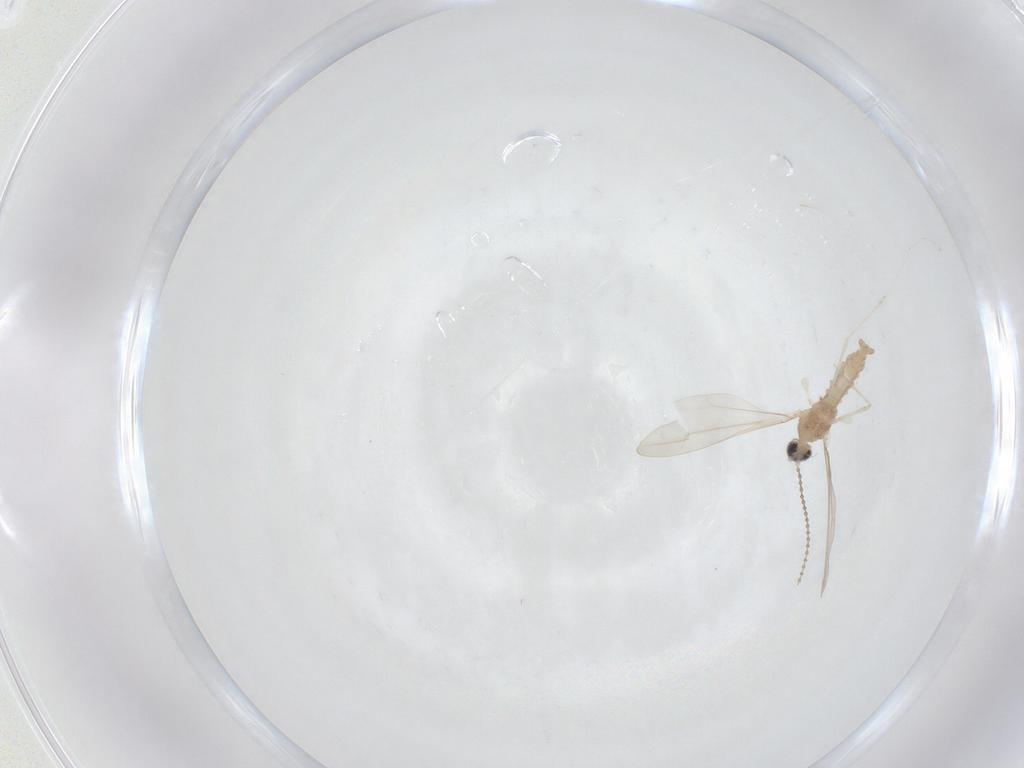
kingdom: Animalia
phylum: Arthropoda
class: Insecta
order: Diptera
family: Cecidomyiidae
